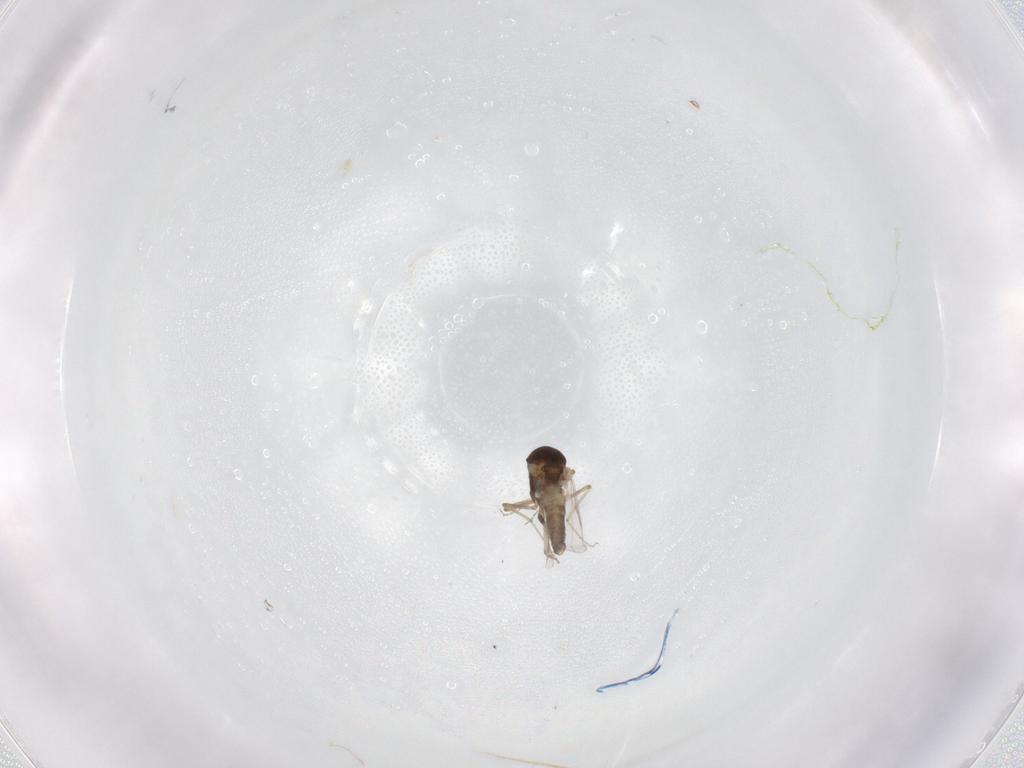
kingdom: Animalia
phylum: Arthropoda
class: Insecta
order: Diptera
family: Ceratopogonidae
